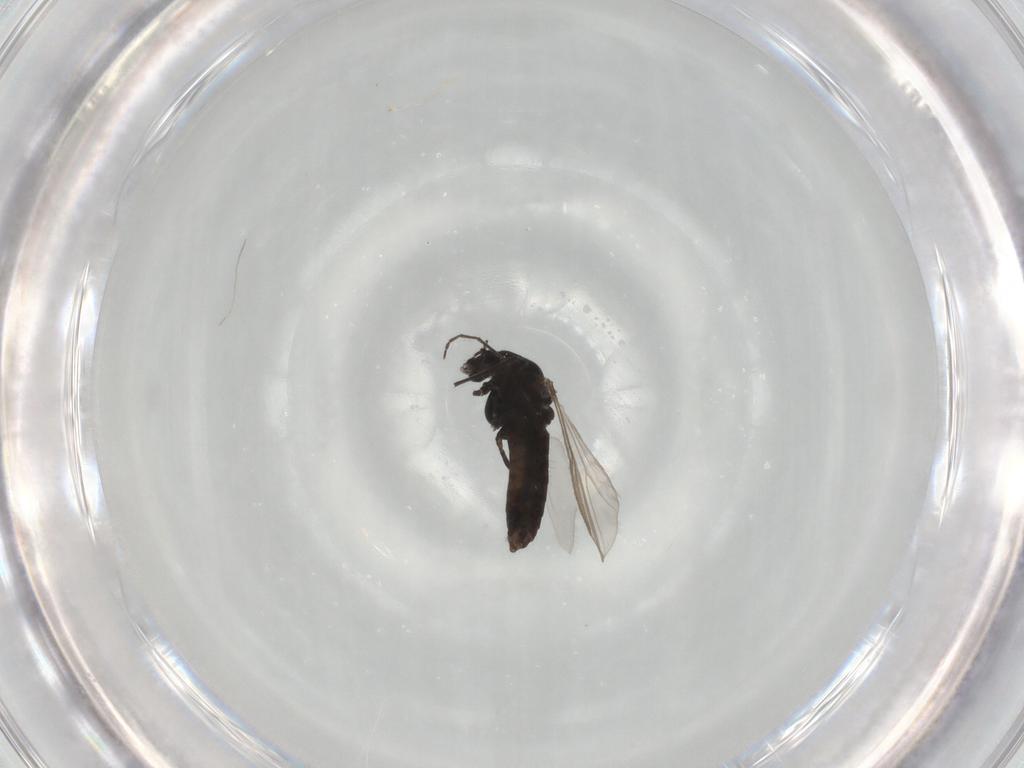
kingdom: Animalia
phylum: Arthropoda
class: Insecta
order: Diptera
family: Chironomidae
